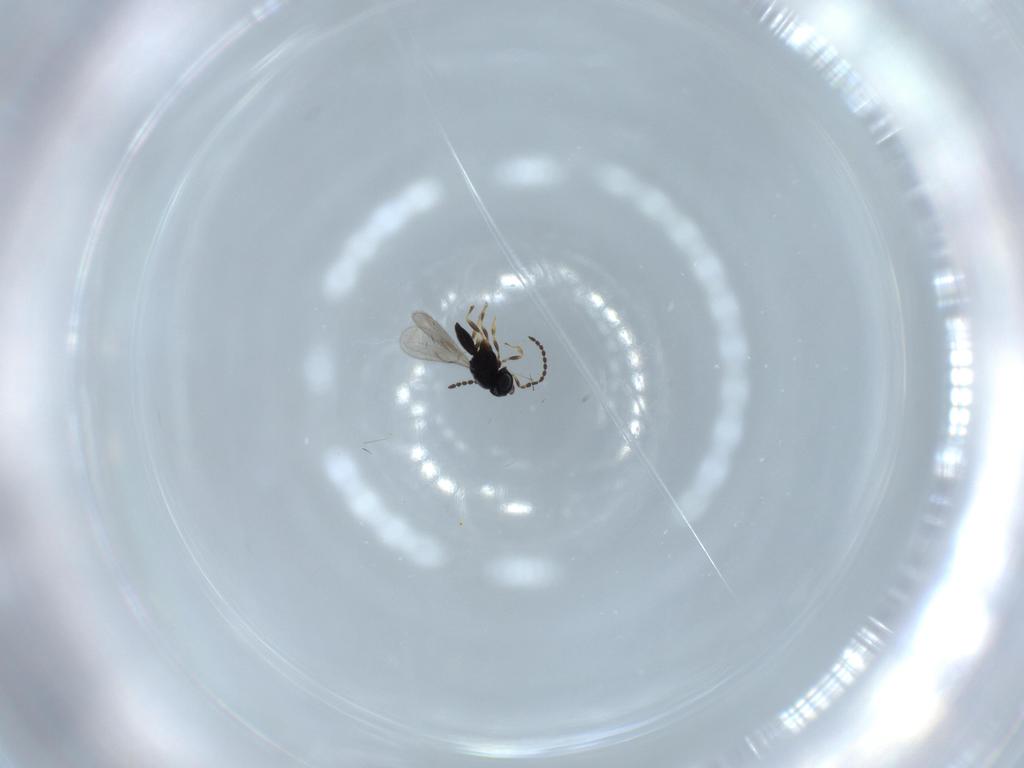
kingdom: Animalia
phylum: Arthropoda
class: Insecta
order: Hymenoptera
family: Scelionidae
